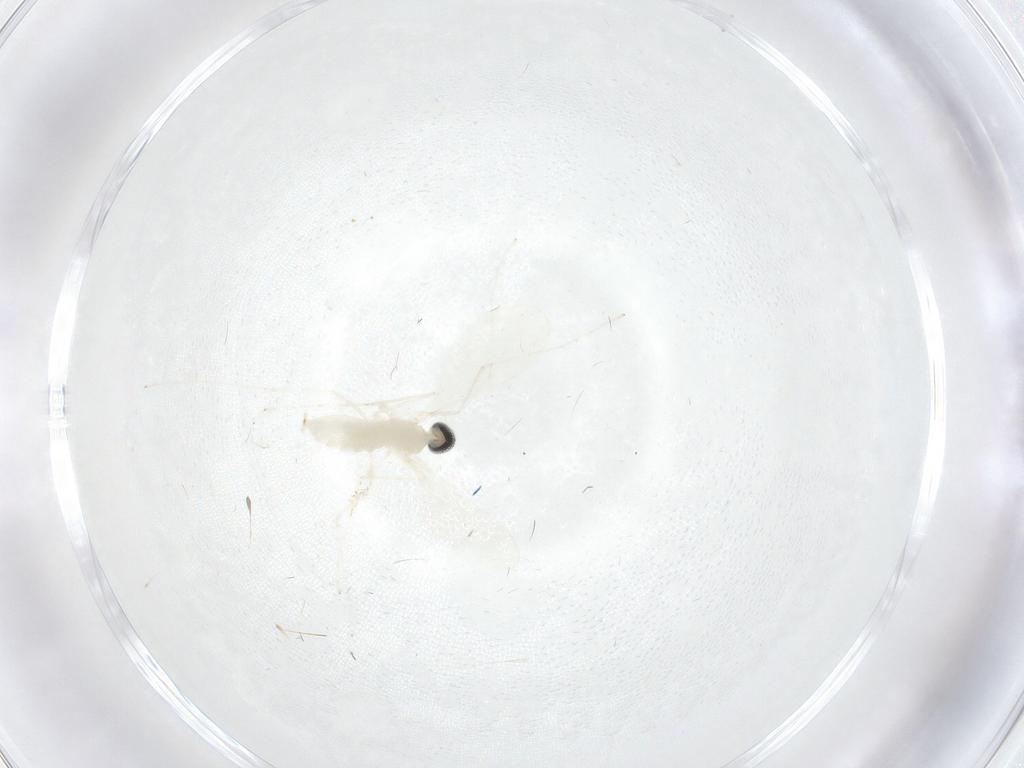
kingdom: Animalia
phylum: Arthropoda
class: Insecta
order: Diptera
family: Cecidomyiidae
